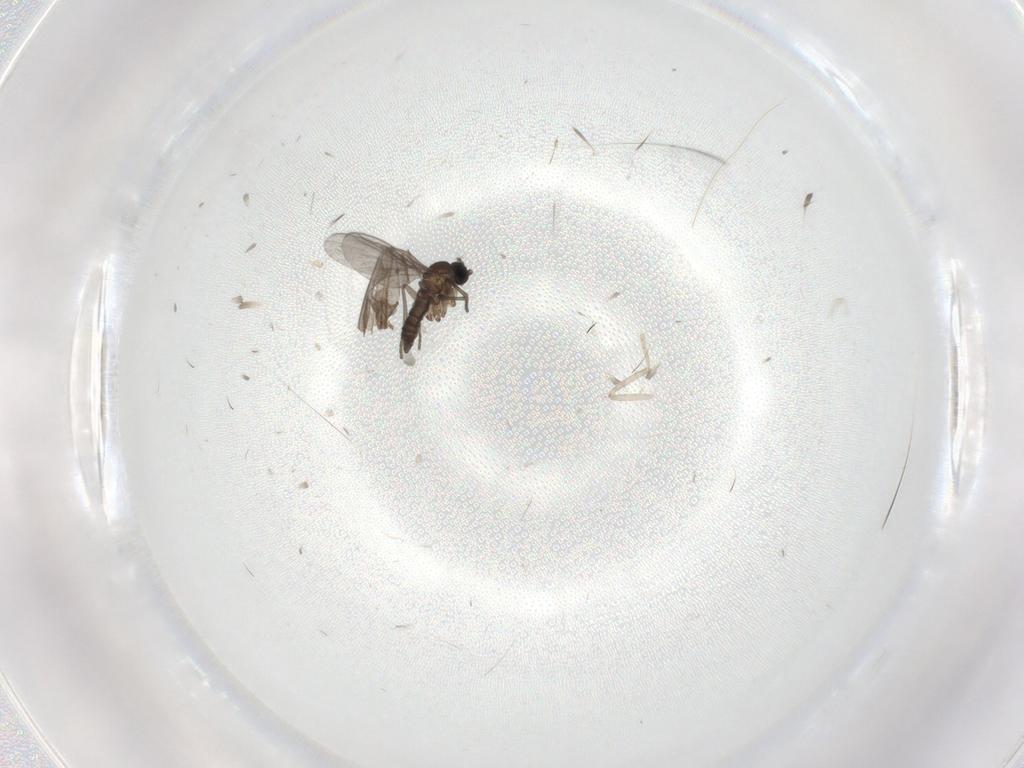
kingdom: Animalia
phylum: Arthropoda
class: Insecta
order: Diptera
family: Sciaridae
